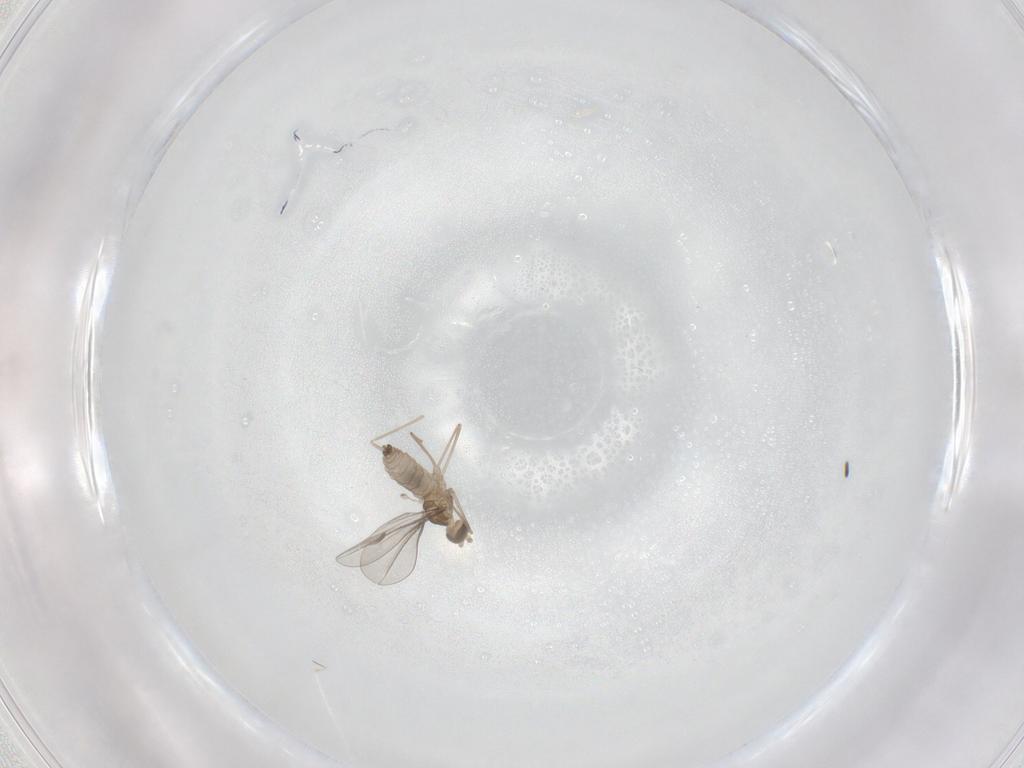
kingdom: Animalia
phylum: Arthropoda
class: Insecta
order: Diptera
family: Cecidomyiidae
